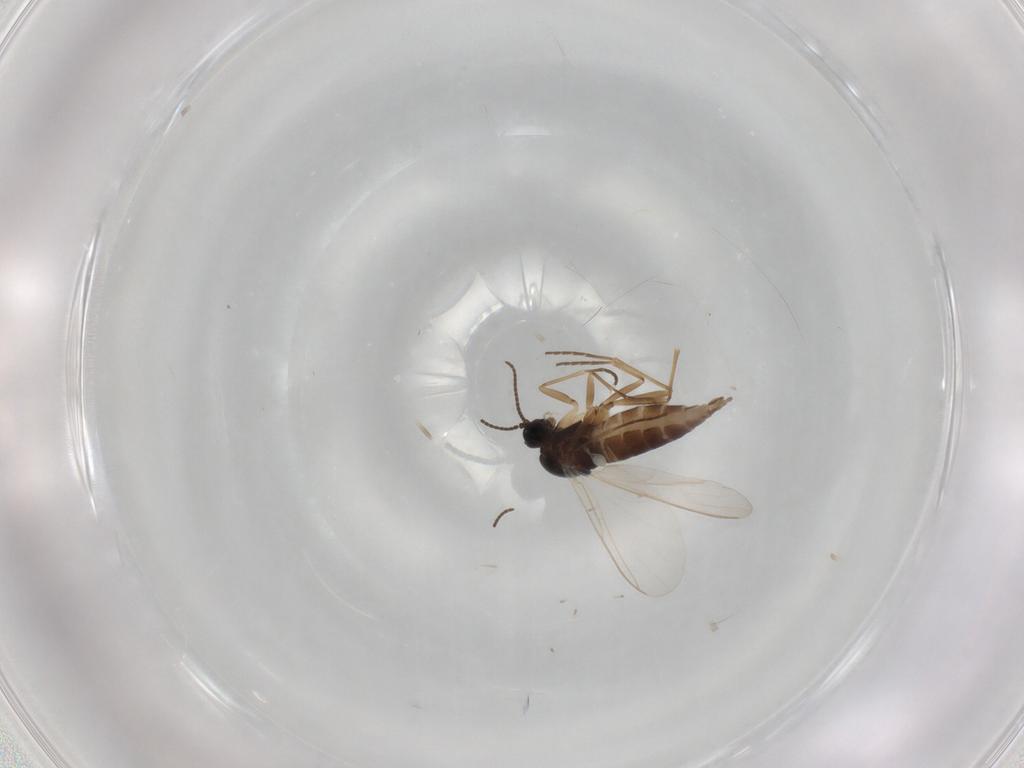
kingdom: Animalia
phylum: Arthropoda
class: Insecta
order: Diptera
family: Sciaridae
